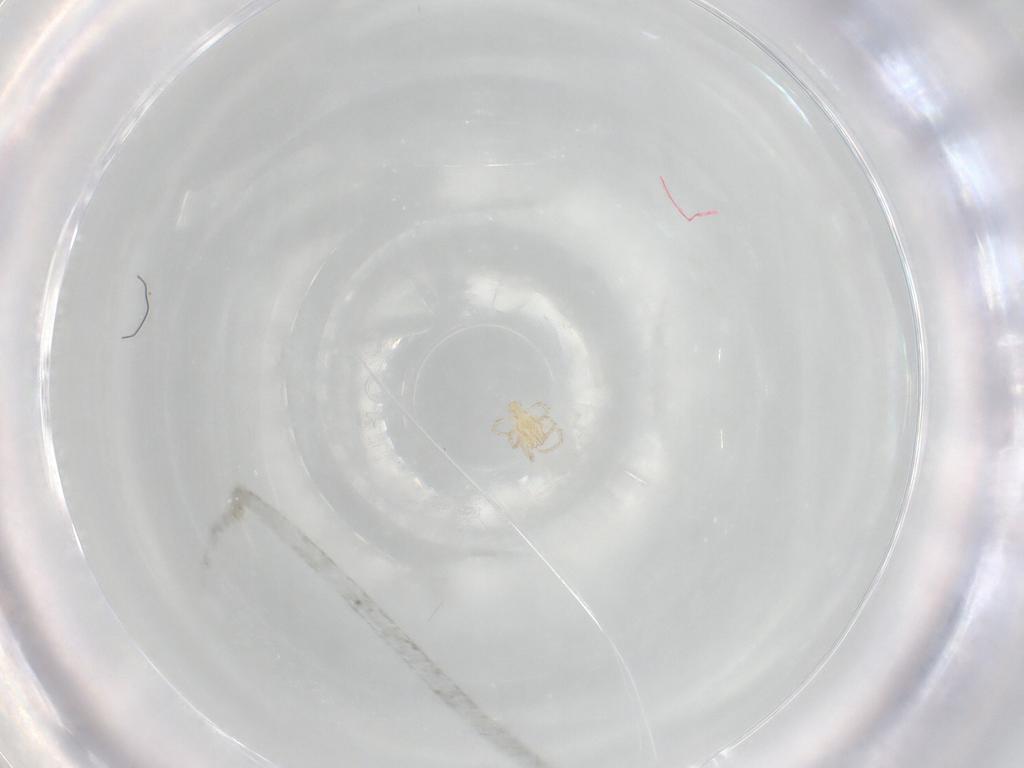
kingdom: Animalia
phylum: Arthropoda
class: Arachnida
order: Trombidiformes
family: Erythraeidae
